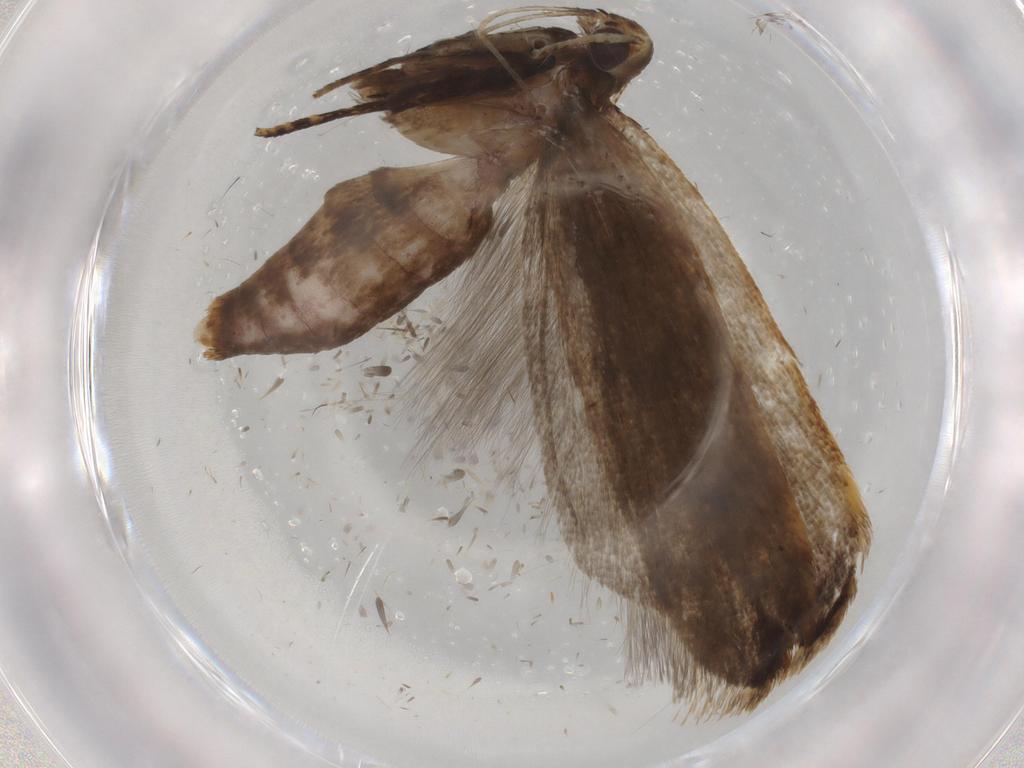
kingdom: Animalia
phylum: Arthropoda
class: Insecta
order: Lepidoptera
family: Gelechiidae
